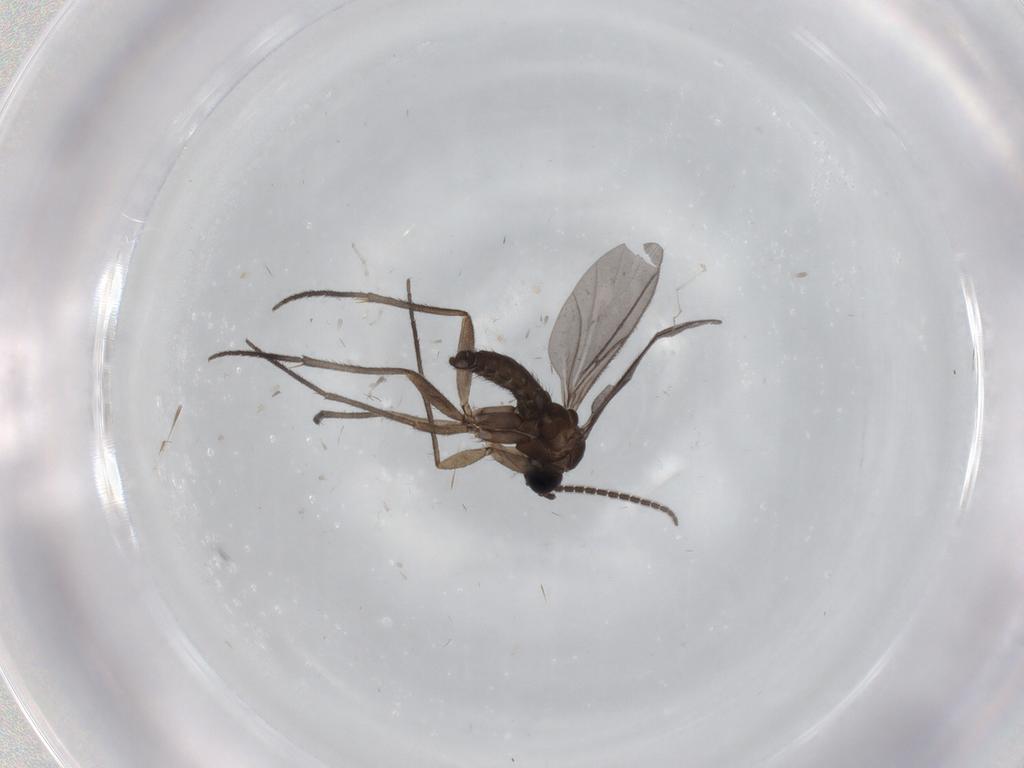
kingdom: Animalia
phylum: Arthropoda
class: Insecta
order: Diptera
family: Sciaridae
